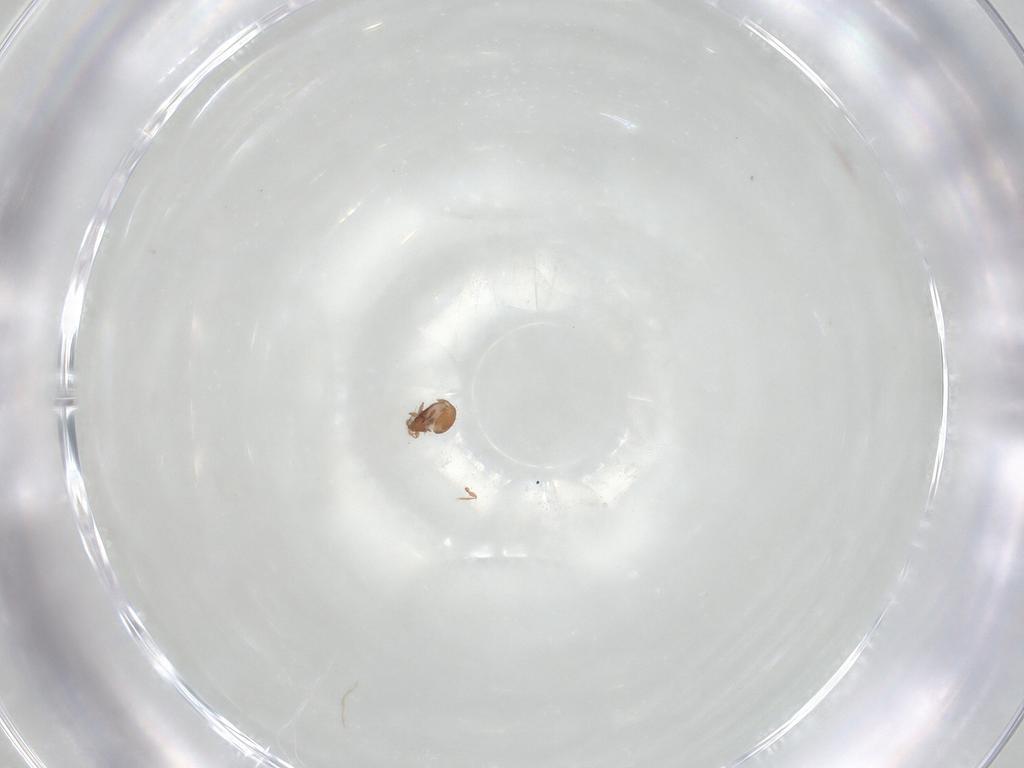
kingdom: Animalia
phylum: Arthropoda
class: Arachnida
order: Sarcoptiformes
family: Oribatulidae
